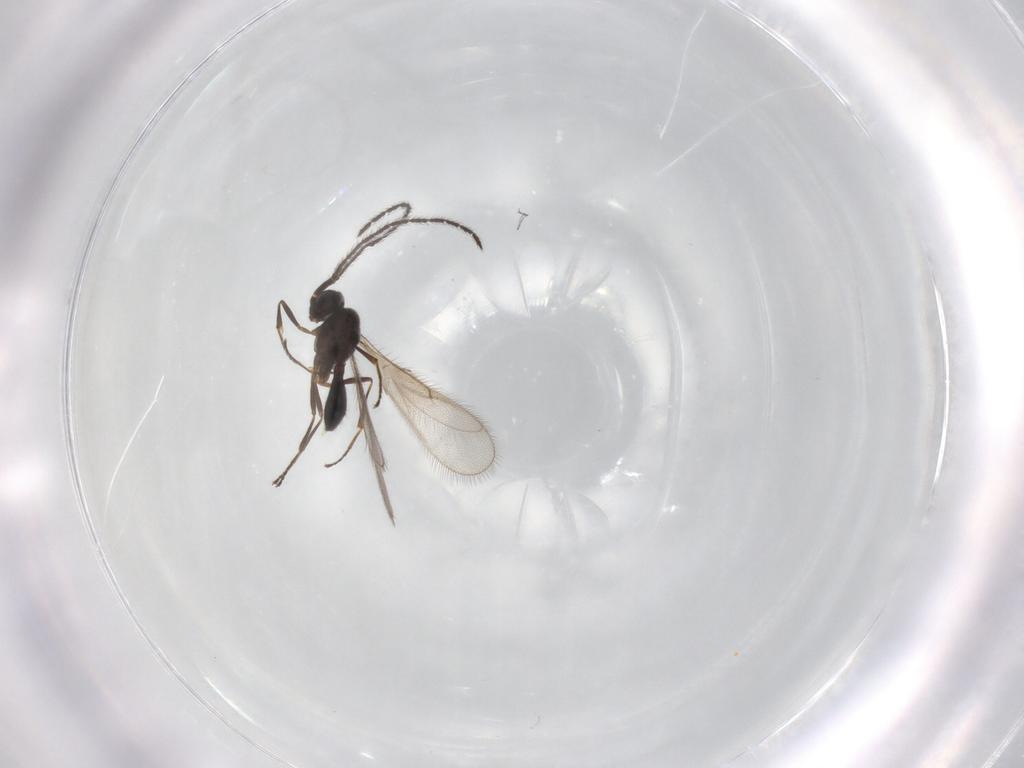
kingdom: Animalia
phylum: Arthropoda
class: Insecta
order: Hymenoptera
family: Scelionidae
